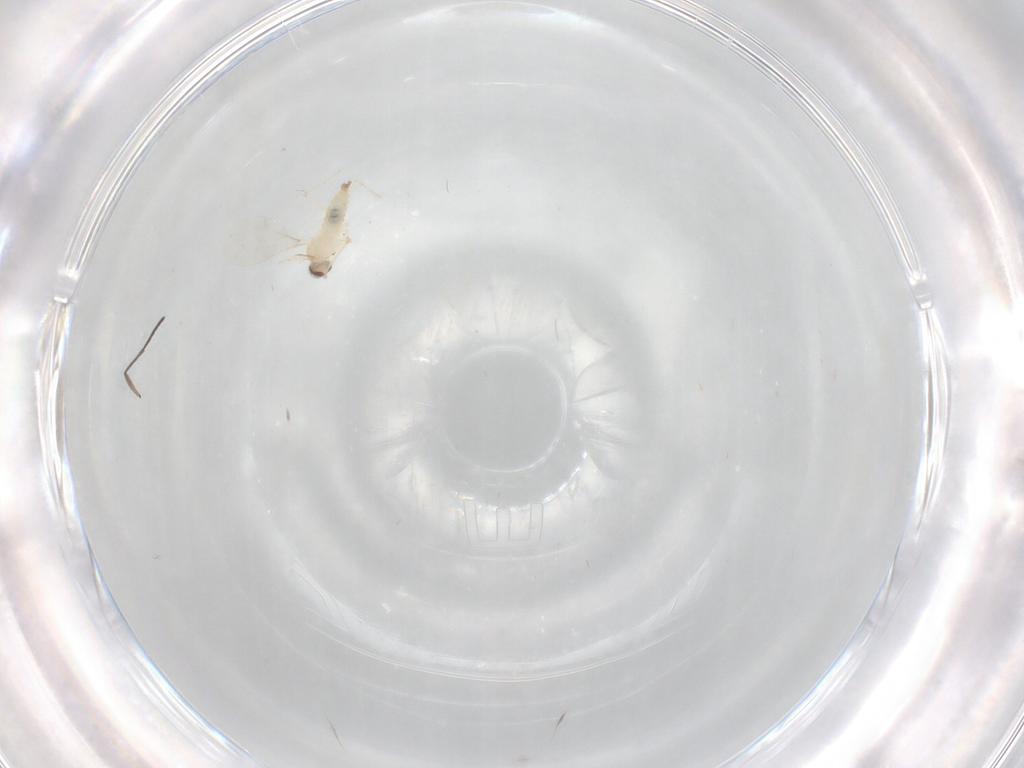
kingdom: Animalia
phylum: Arthropoda
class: Insecta
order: Diptera
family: Cecidomyiidae
